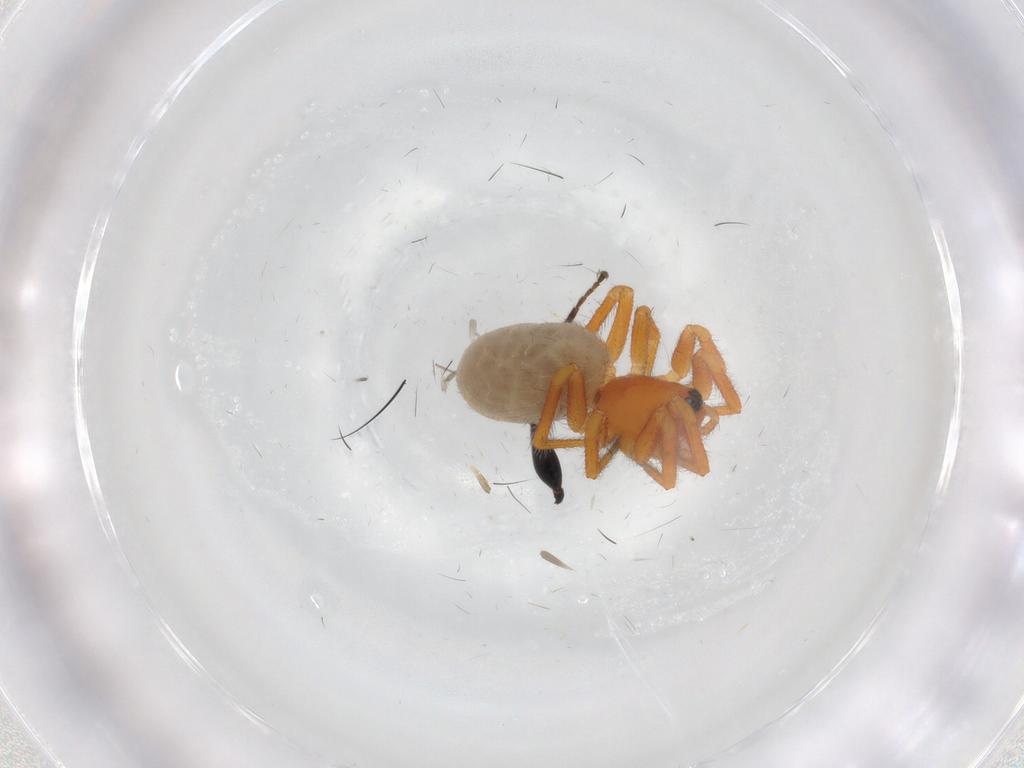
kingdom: Animalia
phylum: Arthropoda
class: Arachnida
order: Araneae
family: Linyphiidae
